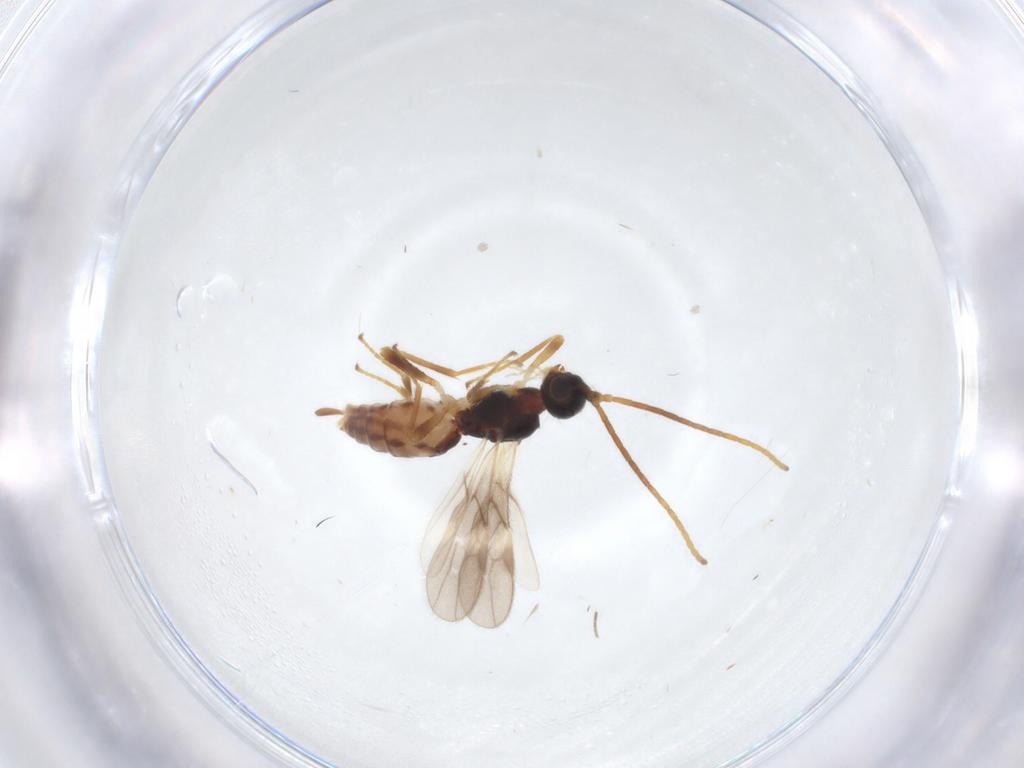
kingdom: Animalia
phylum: Arthropoda
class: Insecta
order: Hymenoptera
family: Braconidae
